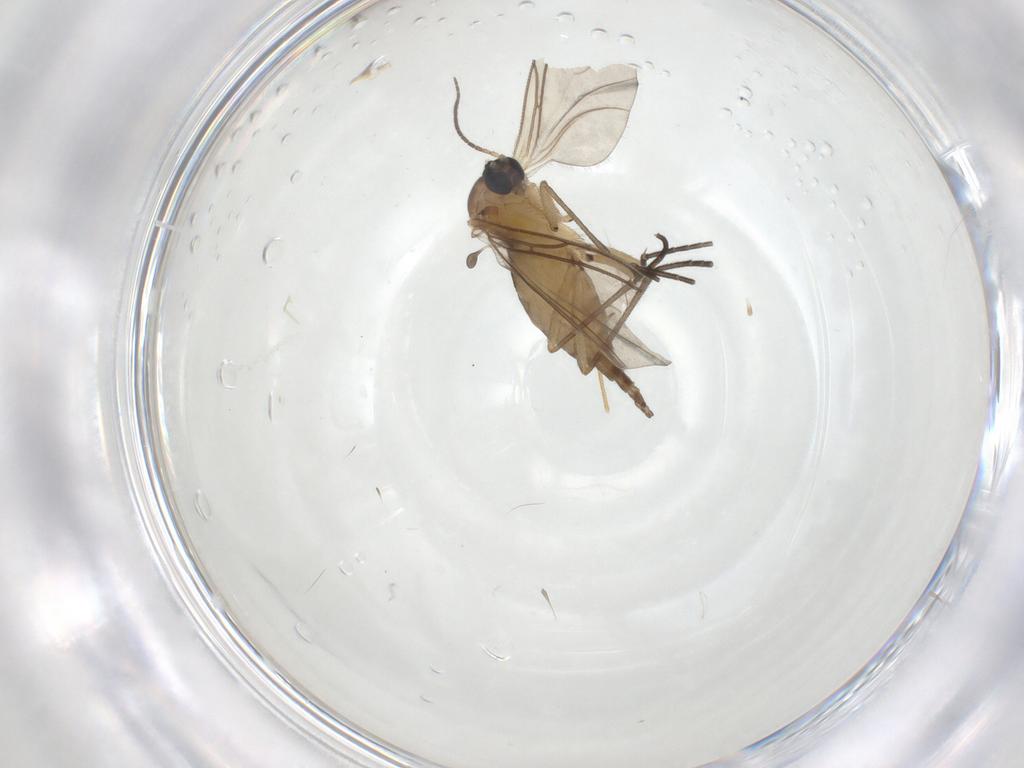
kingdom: Animalia
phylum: Arthropoda
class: Insecta
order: Diptera
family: Sciaridae
